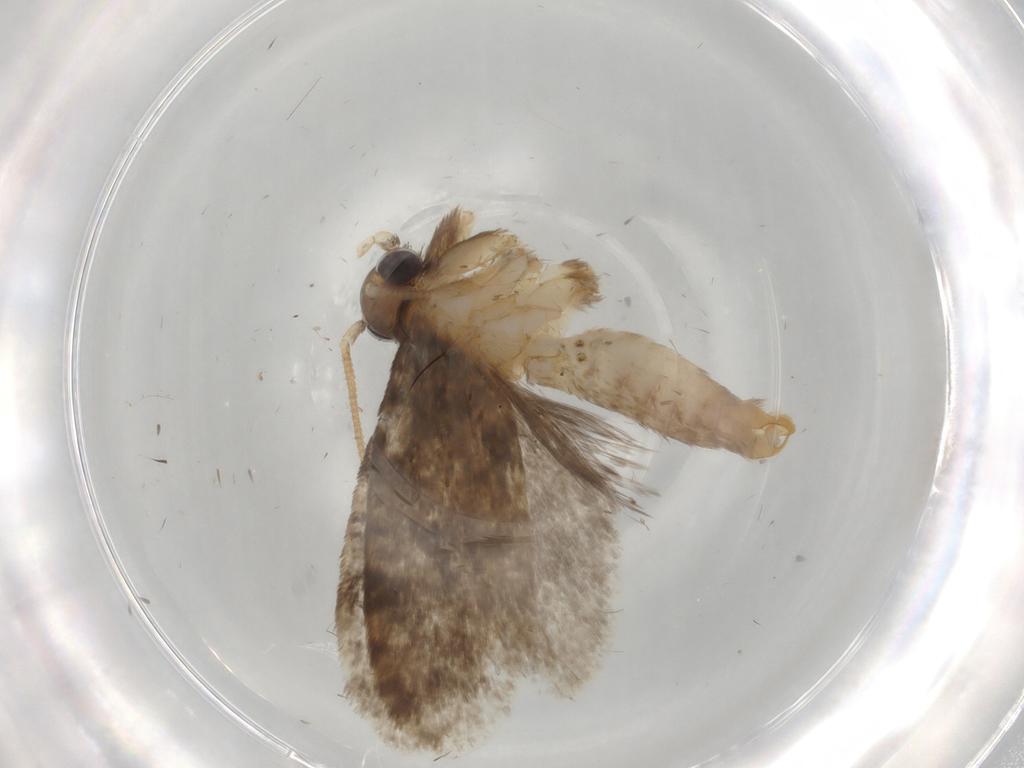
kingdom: Animalia
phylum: Arthropoda
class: Insecta
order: Lepidoptera
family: Tineidae
